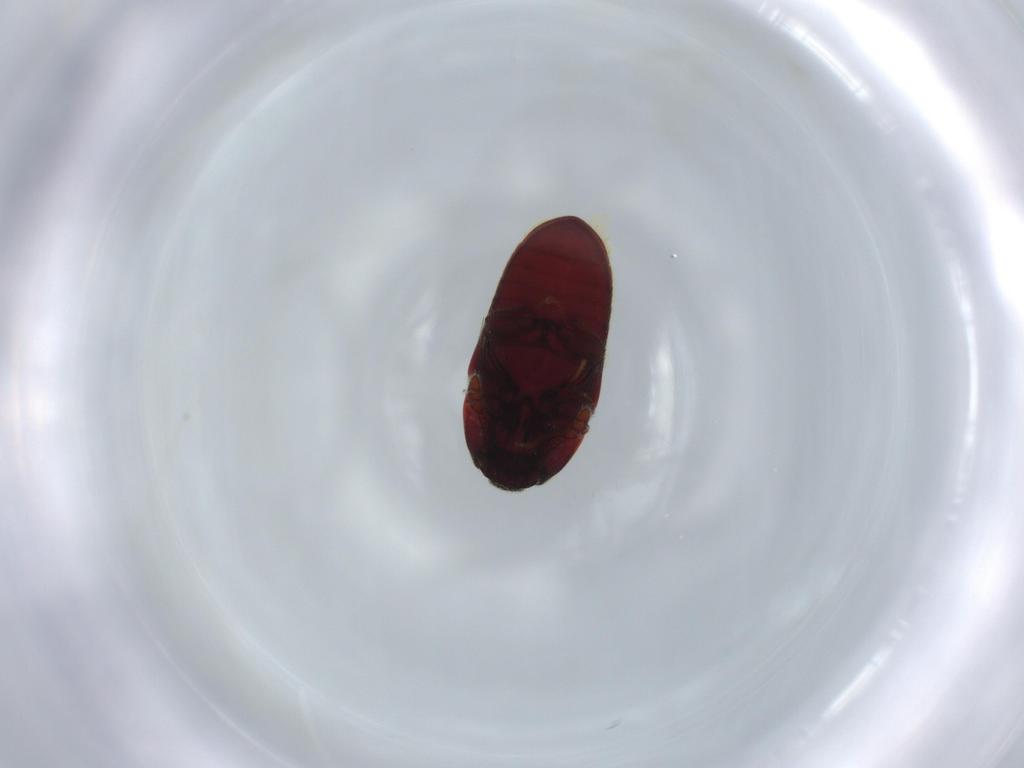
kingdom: Animalia
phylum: Arthropoda
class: Insecta
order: Coleoptera
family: Throscidae
